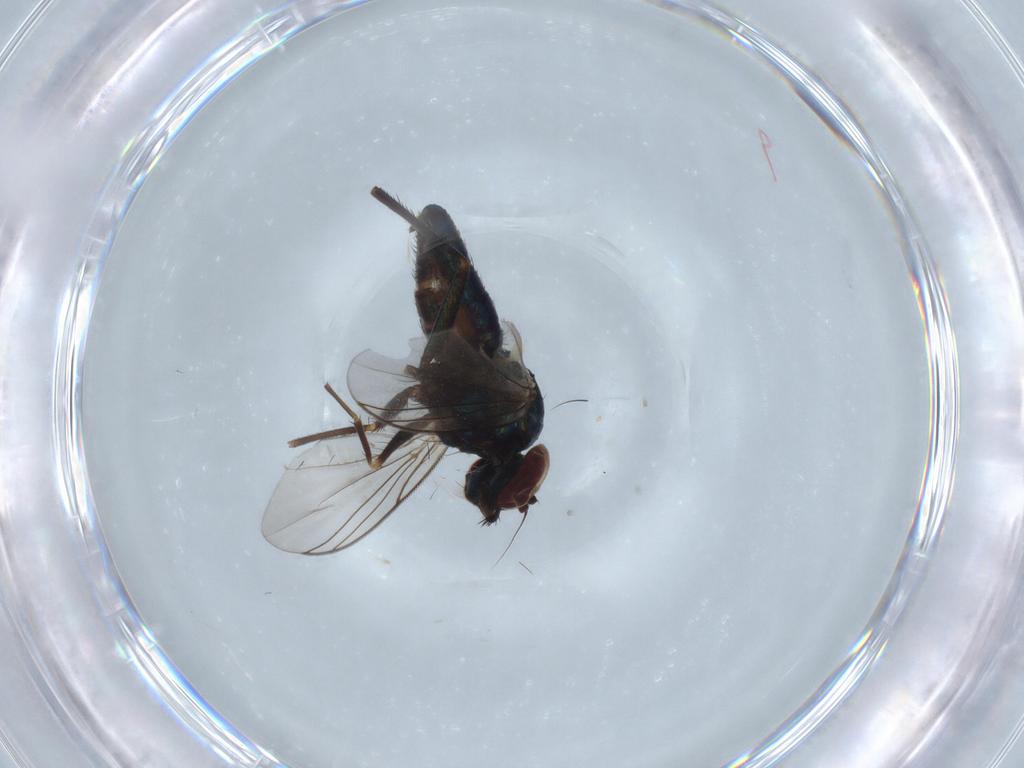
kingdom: Animalia
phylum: Arthropoda
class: Insecta
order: Diptera
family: Dolichopodidae
